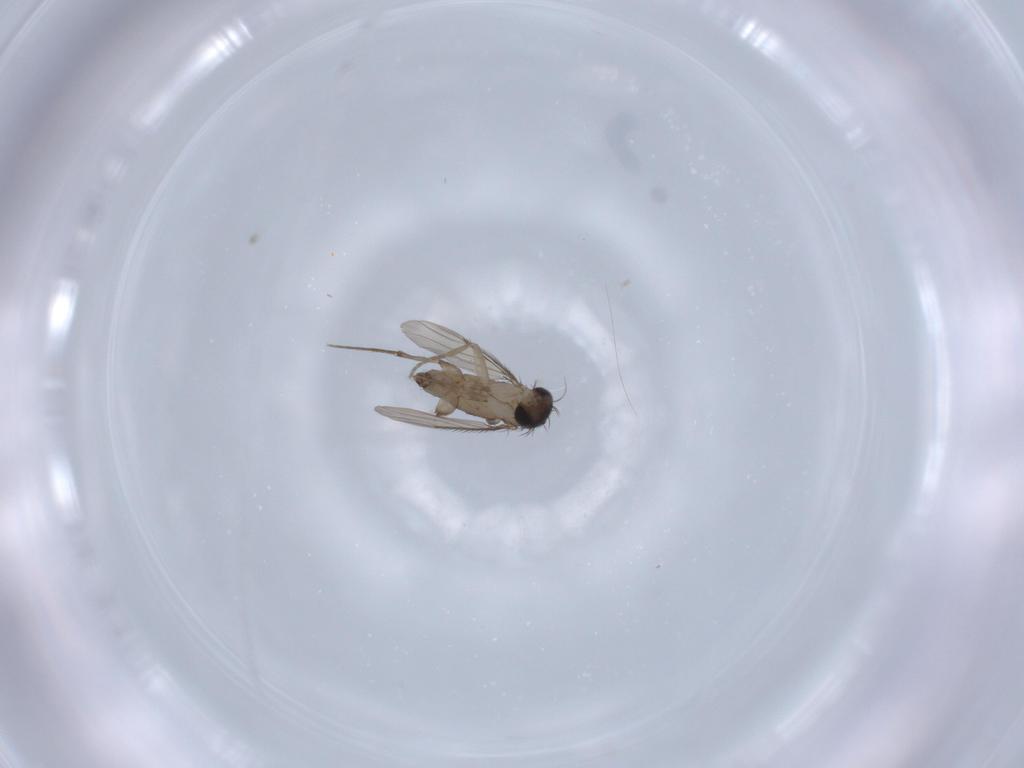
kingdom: Animalia
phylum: Arthropoda
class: Insecta
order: Diptera
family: Phoridae
